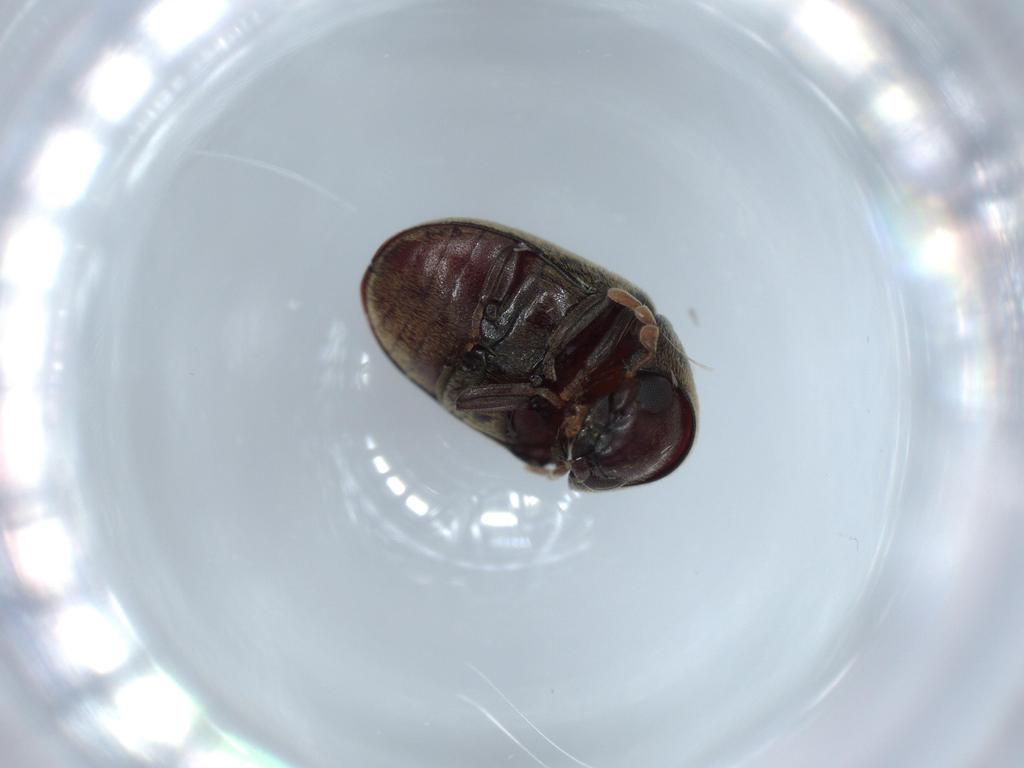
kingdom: Animalia
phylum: Arthropoda
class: Insecta
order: Coleoptera
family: Ptinidae
